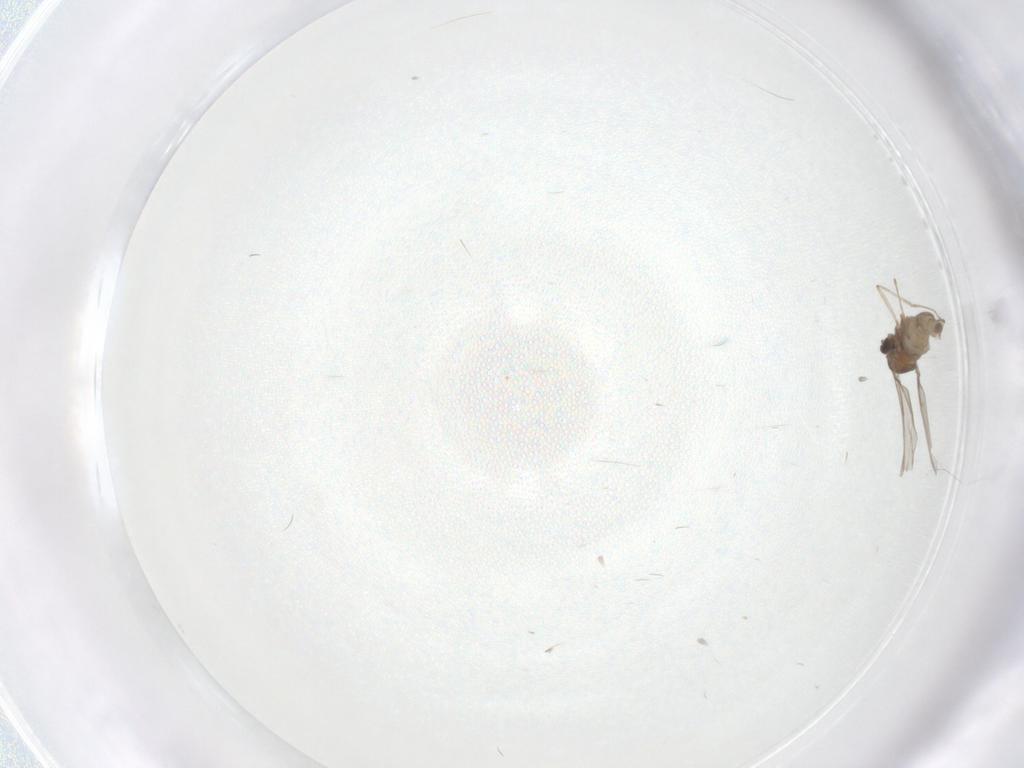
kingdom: Animalia
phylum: Arthropoda
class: Insecta
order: Diptera
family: Cecidomyiidae
